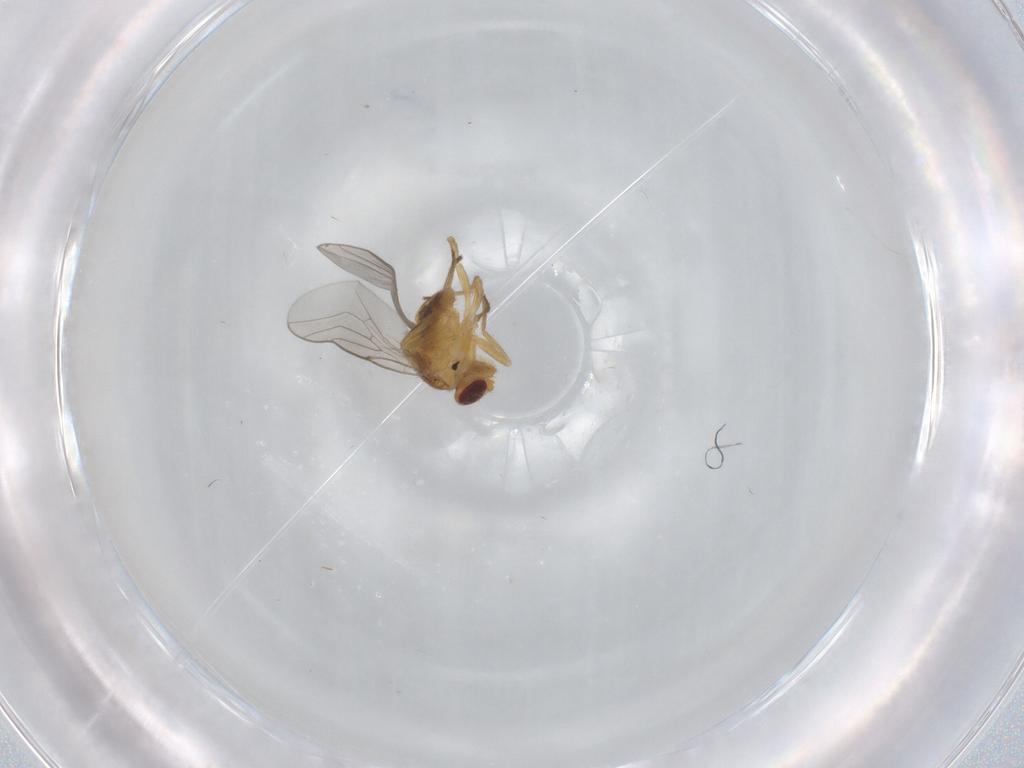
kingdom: Animalia
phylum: Arthropoda
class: Insecta
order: Diptera
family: Chloropidae
